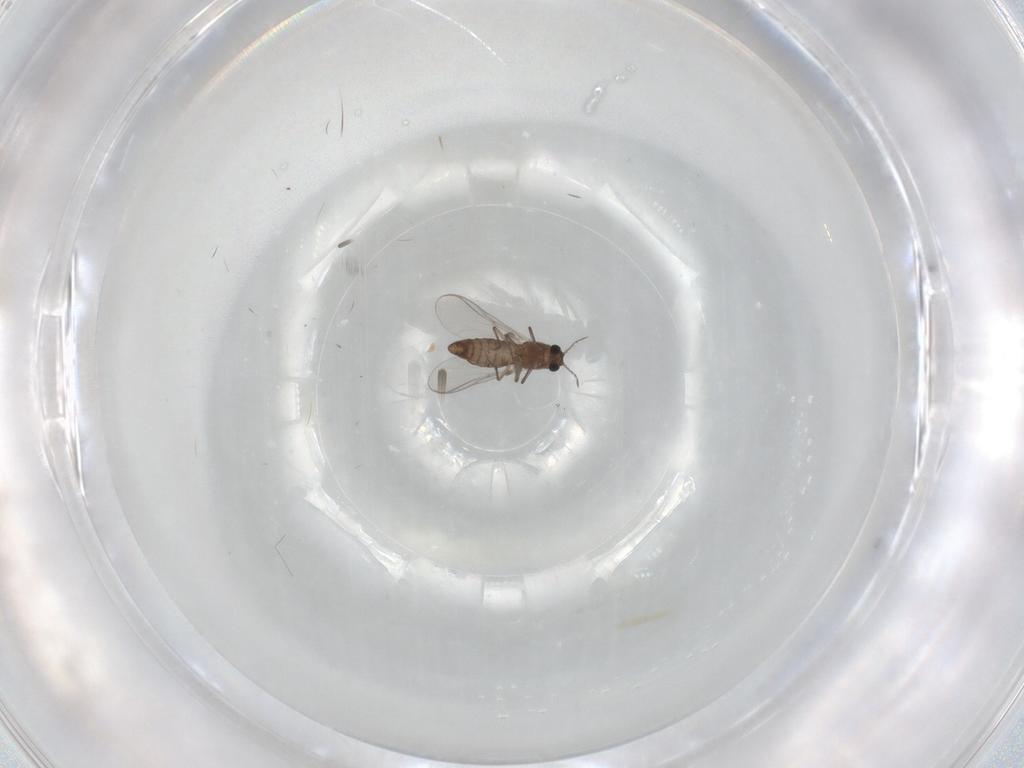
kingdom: Animalia
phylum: Arthropoda
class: Insecta
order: Diptera
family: Chironomidae
